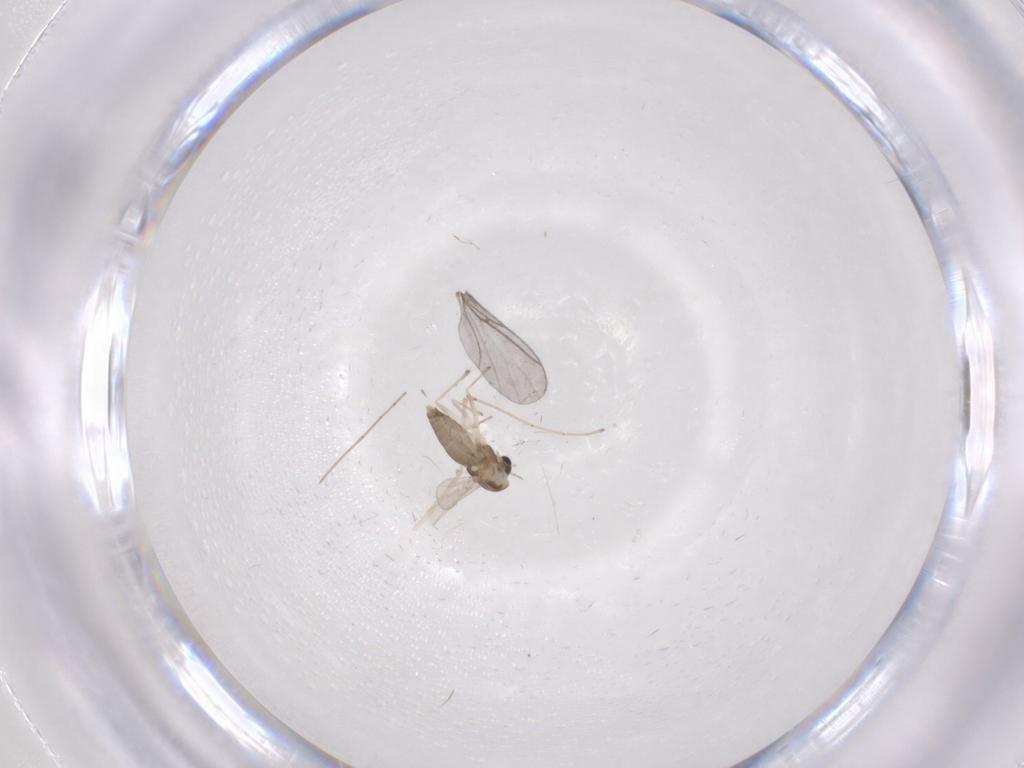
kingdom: Animalia
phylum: Arthropoda
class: Insecta
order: Diptera
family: Chironomidae
